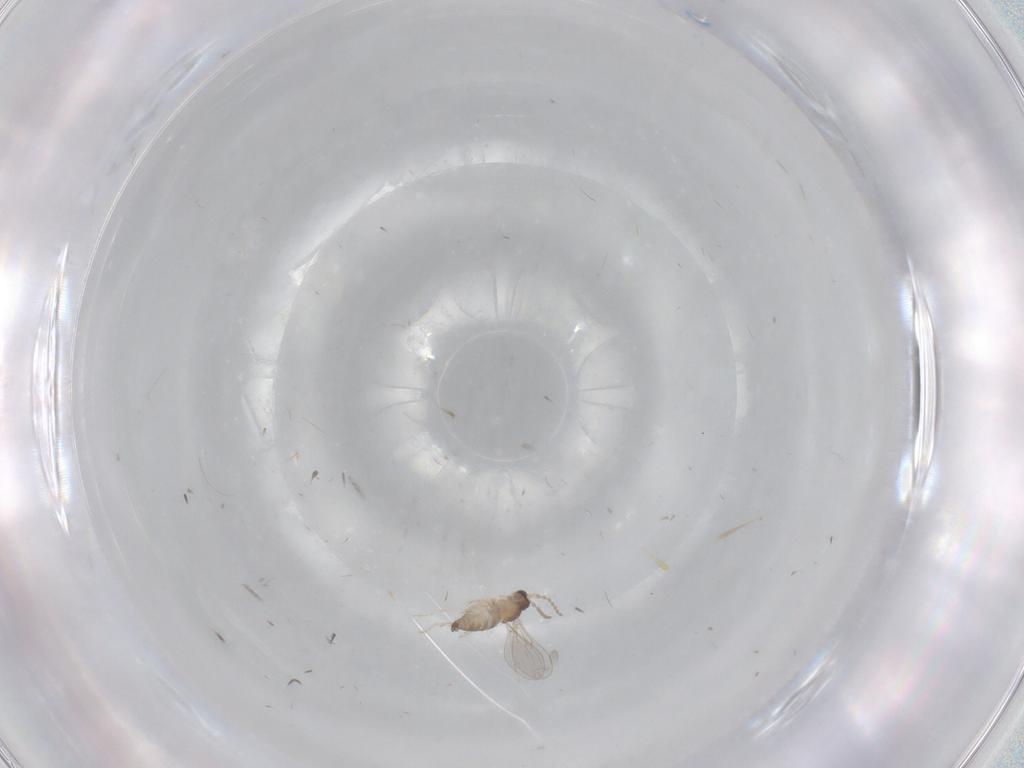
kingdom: Animalia
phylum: Arthropoda
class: Insecta
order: Diptera
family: Cecidomyiidae
